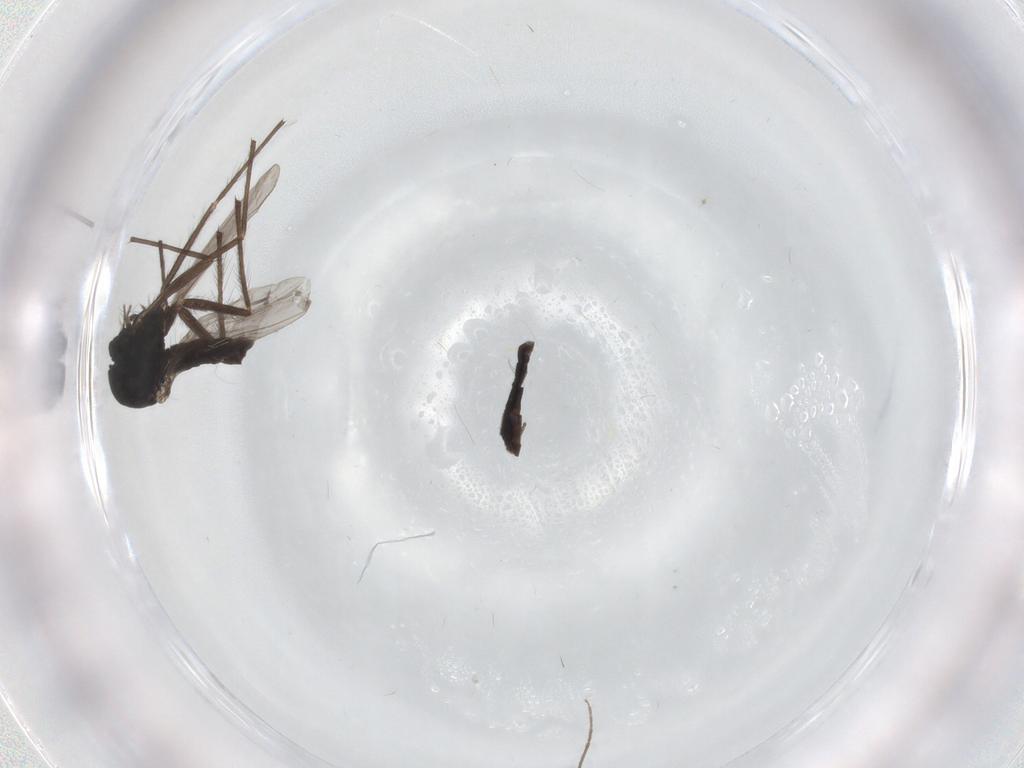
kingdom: Animalia
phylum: Arthropoda
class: Insecta
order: Diptera
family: Cecidomyiidae
